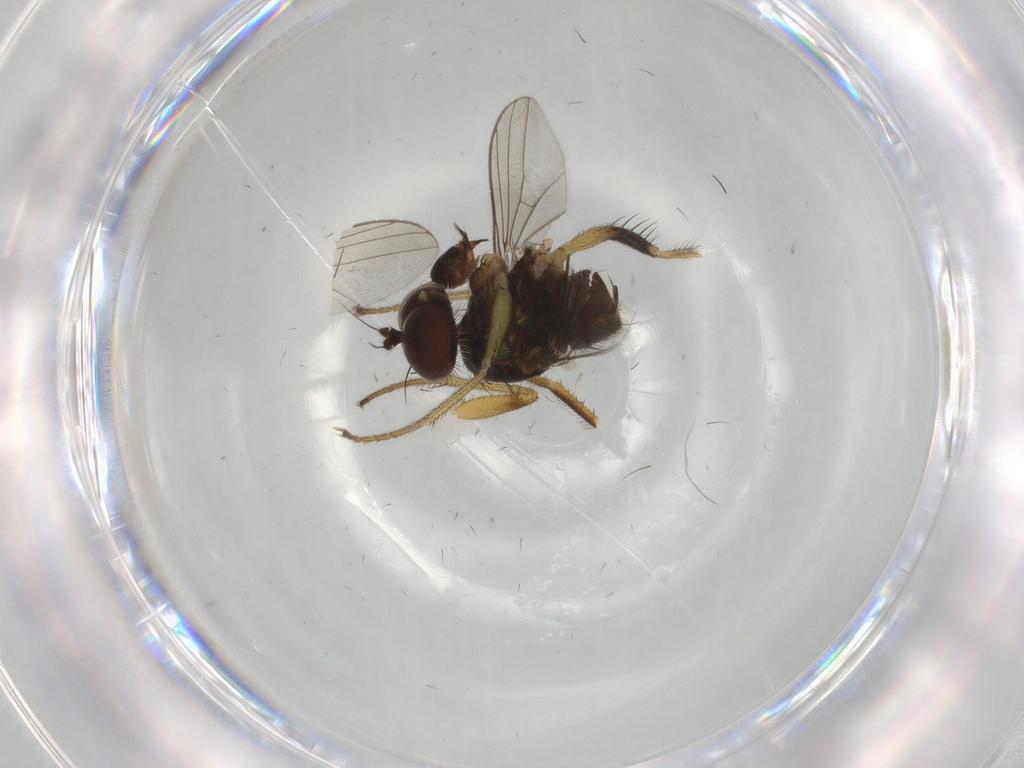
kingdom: Animalia
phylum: Arthropoda
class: Insecta
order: Diptera
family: Dolichopodidae
